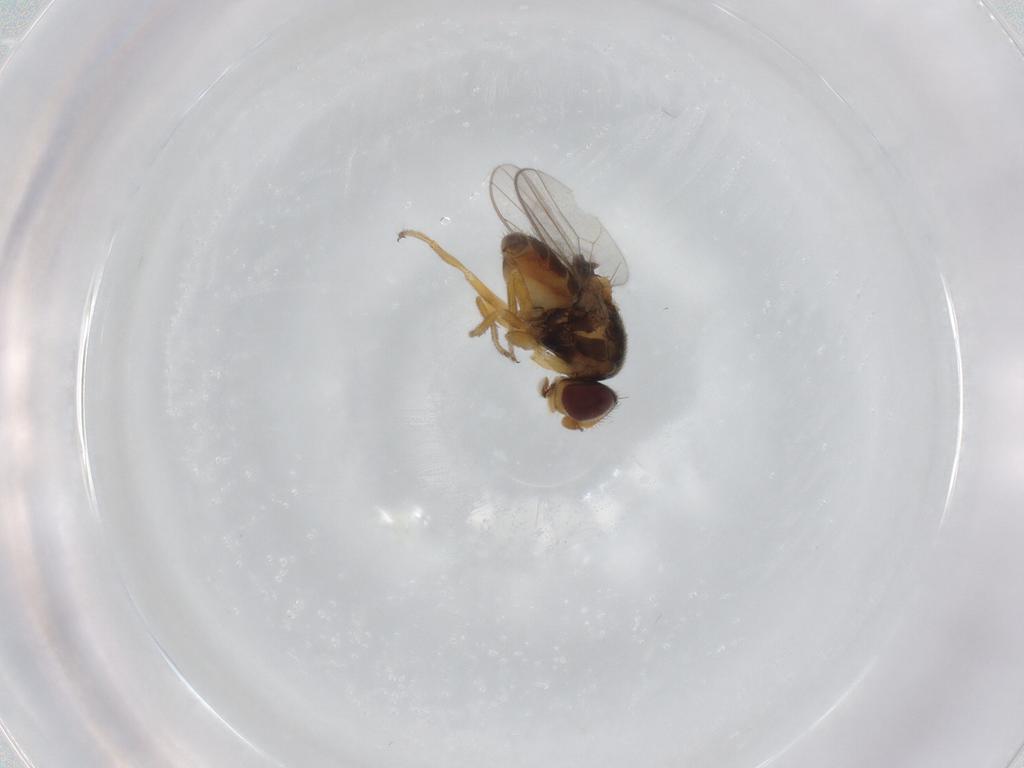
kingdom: Animalia
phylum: Arthropoda
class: Insecta
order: Diptera
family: Chloropidae
